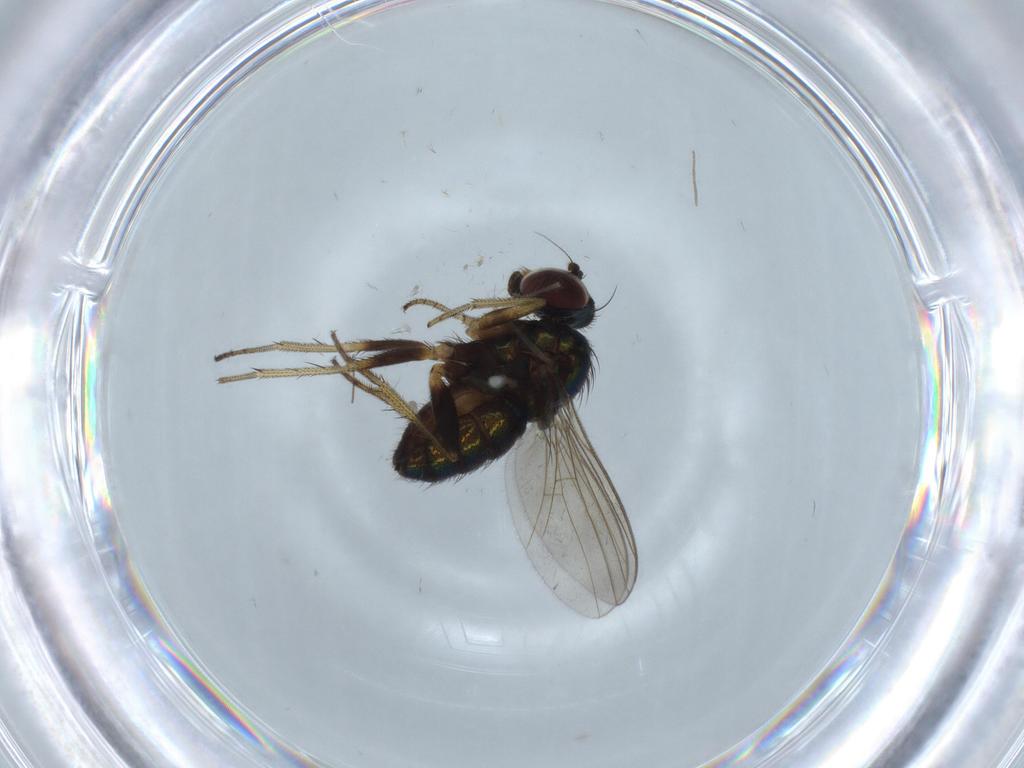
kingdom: Animalia
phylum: Arthropoda
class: Insecta
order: Diptera
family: Chironomidae
